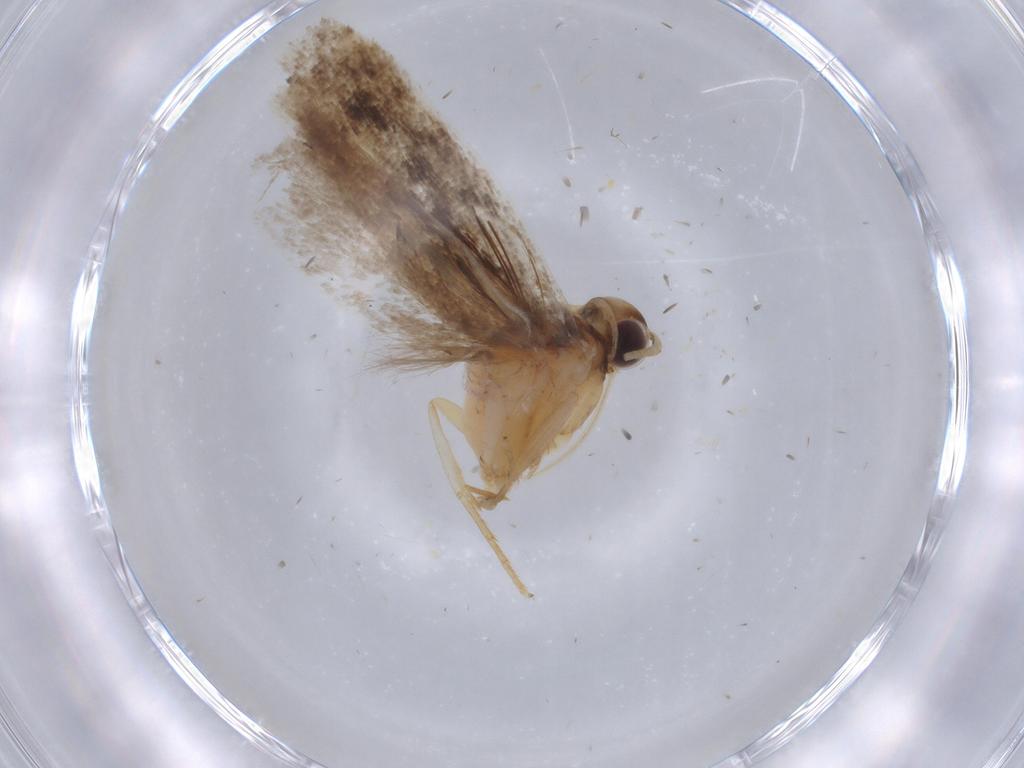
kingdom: Animalia
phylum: Arthropoda
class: Insecta
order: Lepidoptera
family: Gelechiidae
